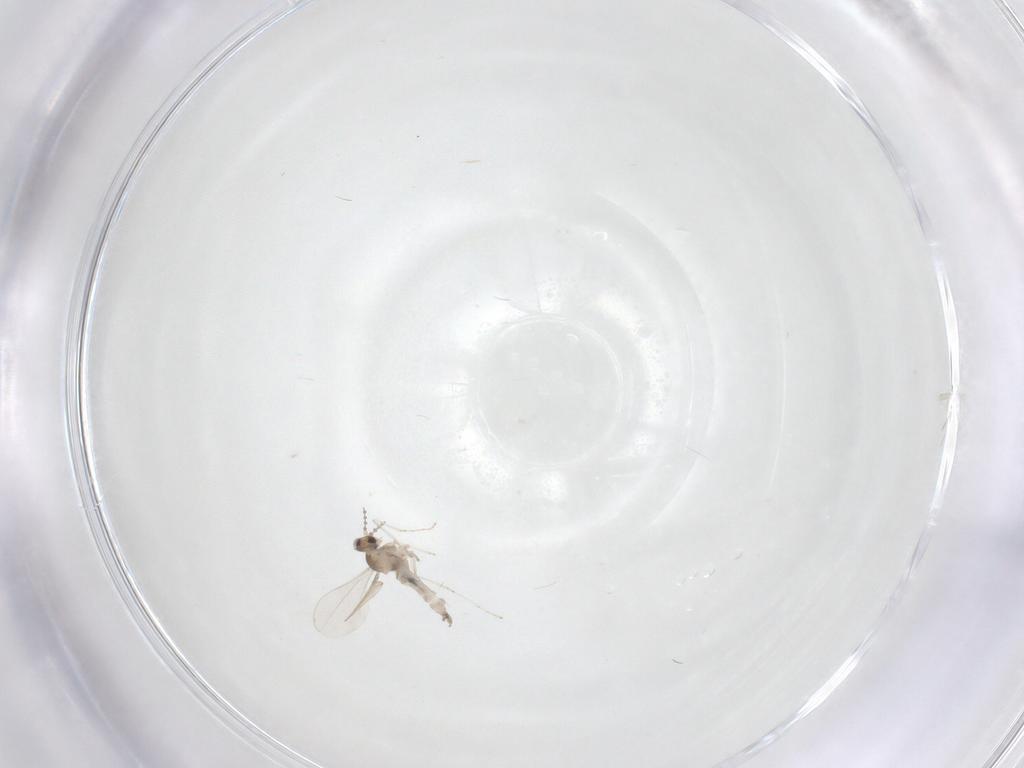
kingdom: Animalia
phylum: Arthropoda
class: Insecta
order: Diptera
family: Cecidomyiidae
